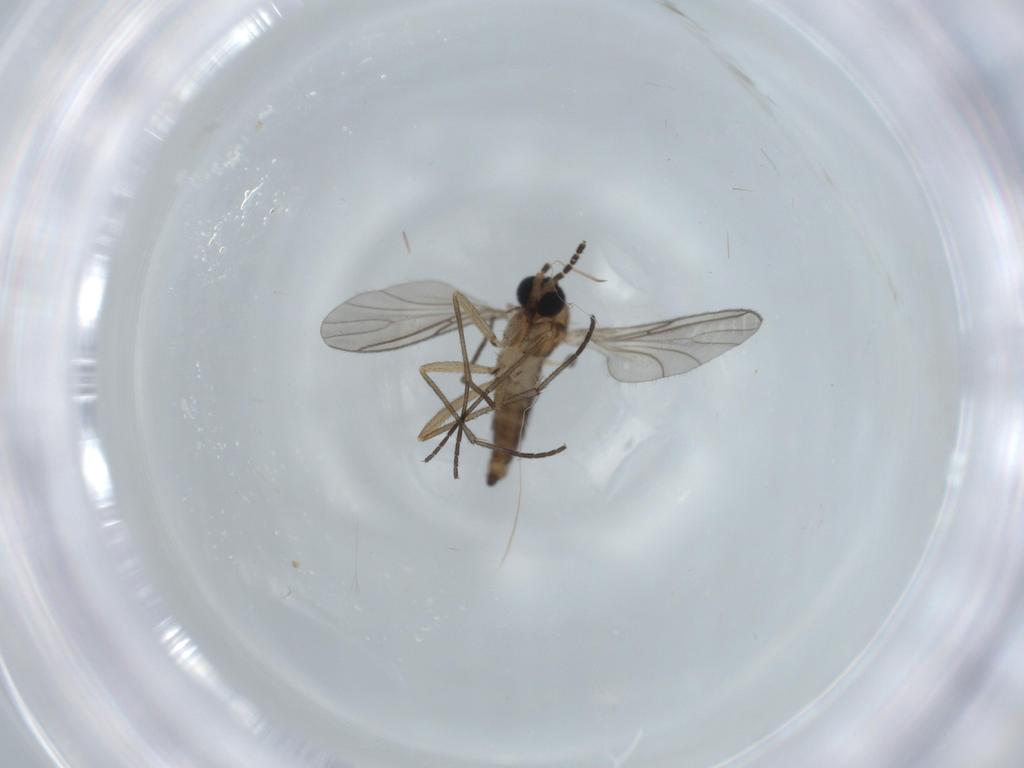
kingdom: Animalia
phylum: Arthropoda
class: Insecta
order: Diptera
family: Sciaridae
